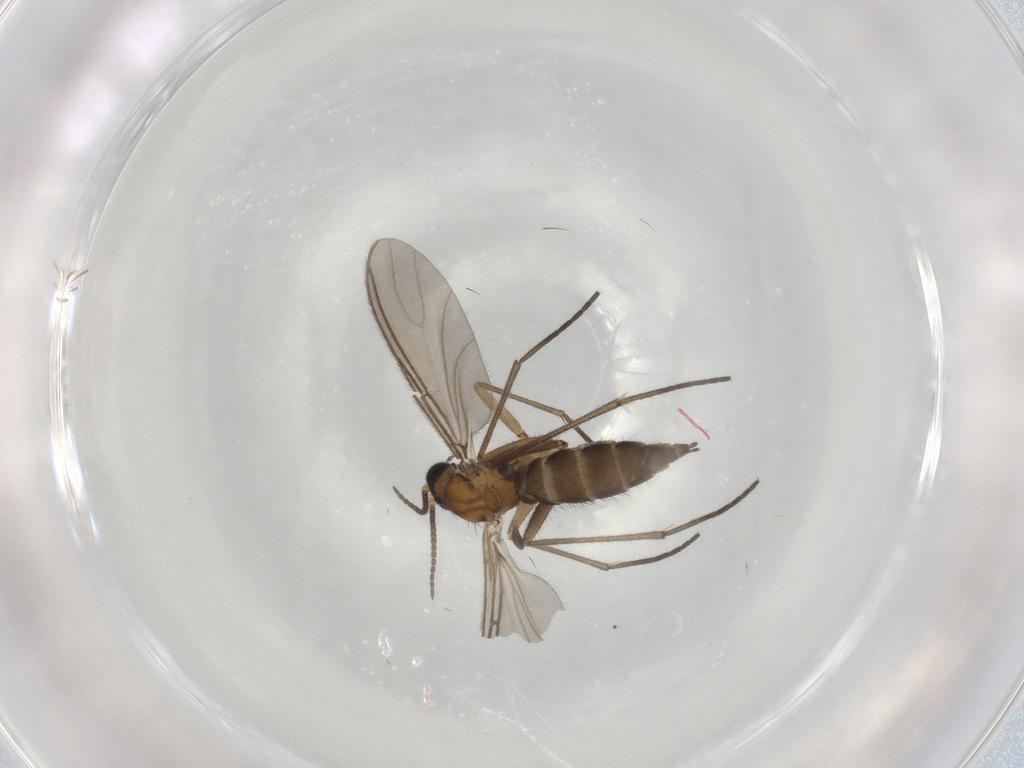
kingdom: Animalia
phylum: Arthropoda
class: Insecta
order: Diptera
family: Sciaridae
